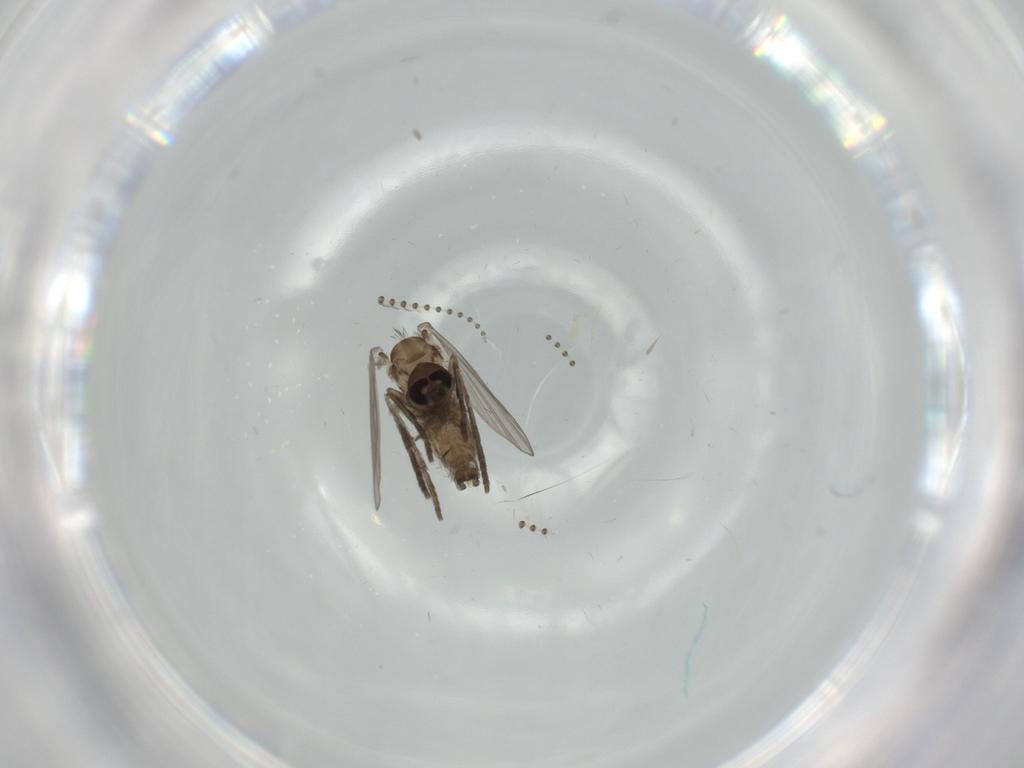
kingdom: Animalia
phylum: Arthropoda
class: Insecta
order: Diptera
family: Psychodidae
